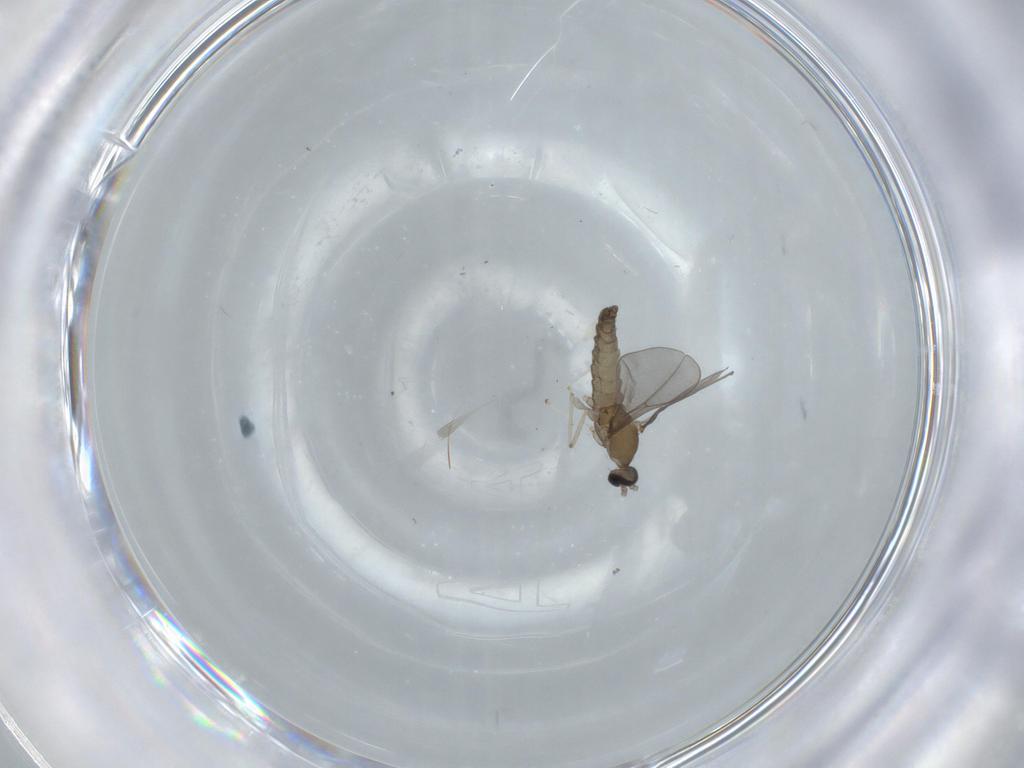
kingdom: Animalia
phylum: Arthropoda
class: Insecta
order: Diptera
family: Cecidomyiidae
